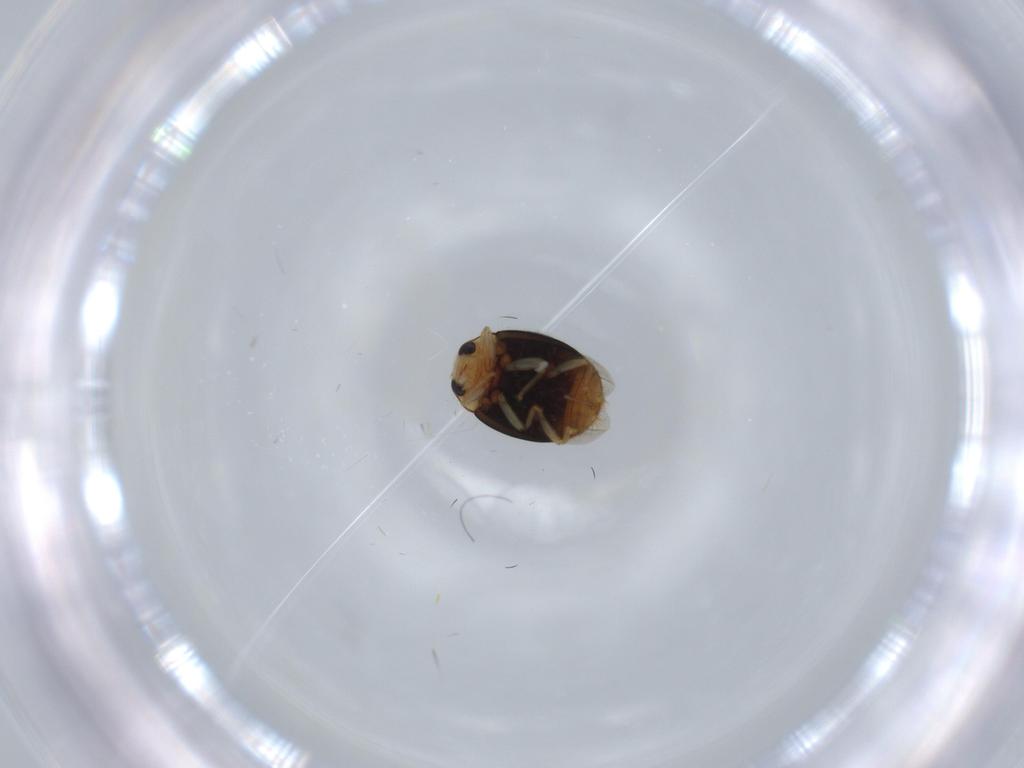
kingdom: Animalia
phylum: Arthropoda
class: Insecta
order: Coleoptera
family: Coccinellidae
